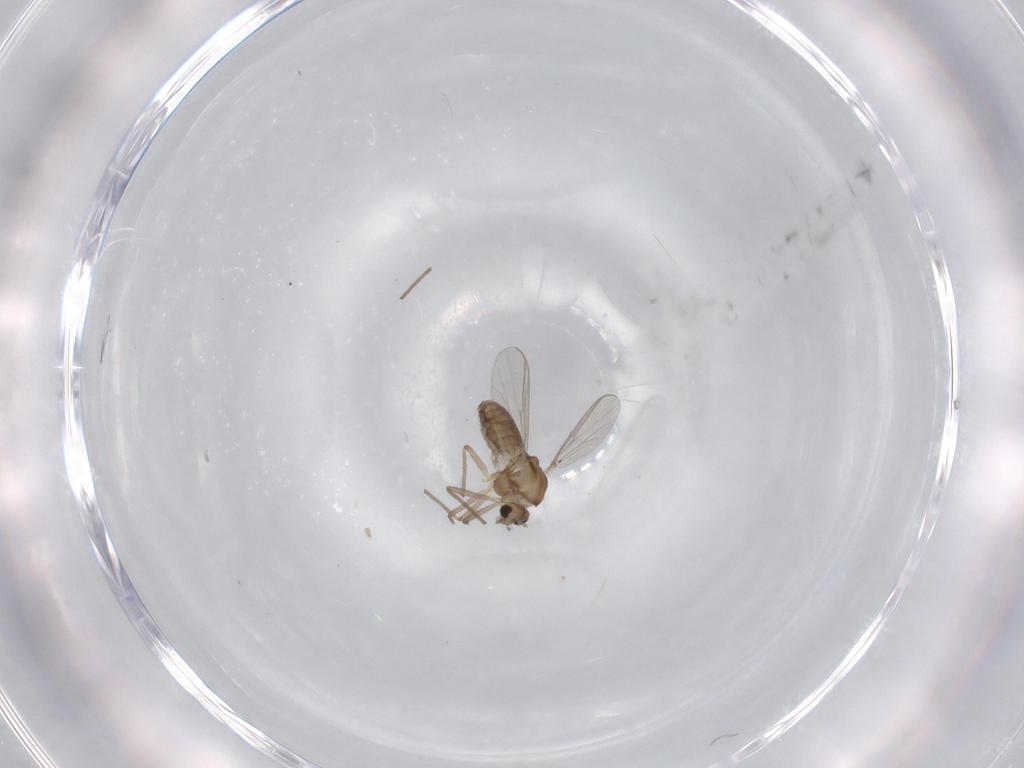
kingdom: Animalia
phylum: Arthropoda
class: Insecta
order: Diptera
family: Chironomidae
